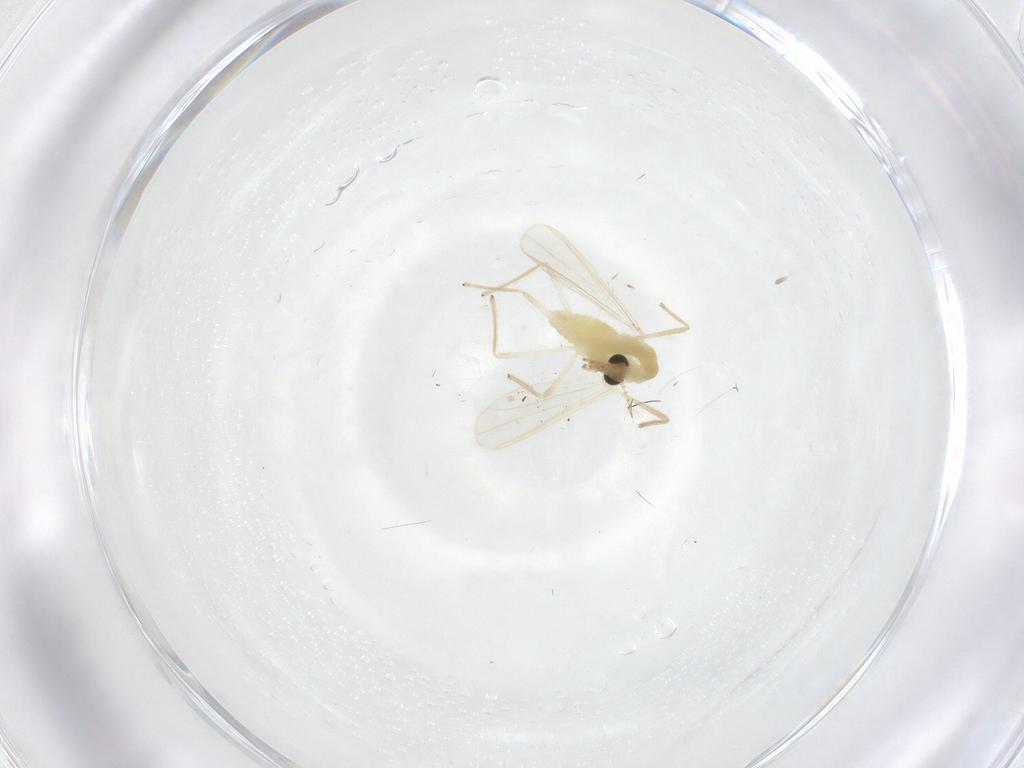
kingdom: Animalia
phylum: Arthropoda
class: Insecta
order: Diptera
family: Chironomidae
